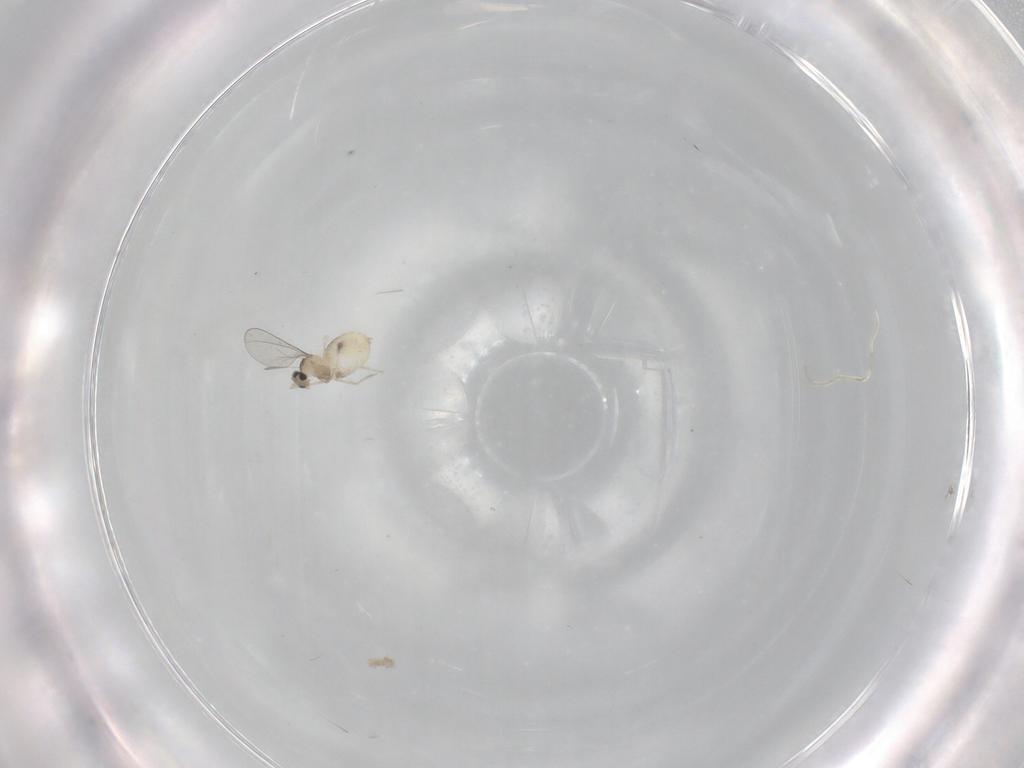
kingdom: Animalia
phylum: Arthropoda
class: Insecta
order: Diptera
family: Cecidomyiidae
